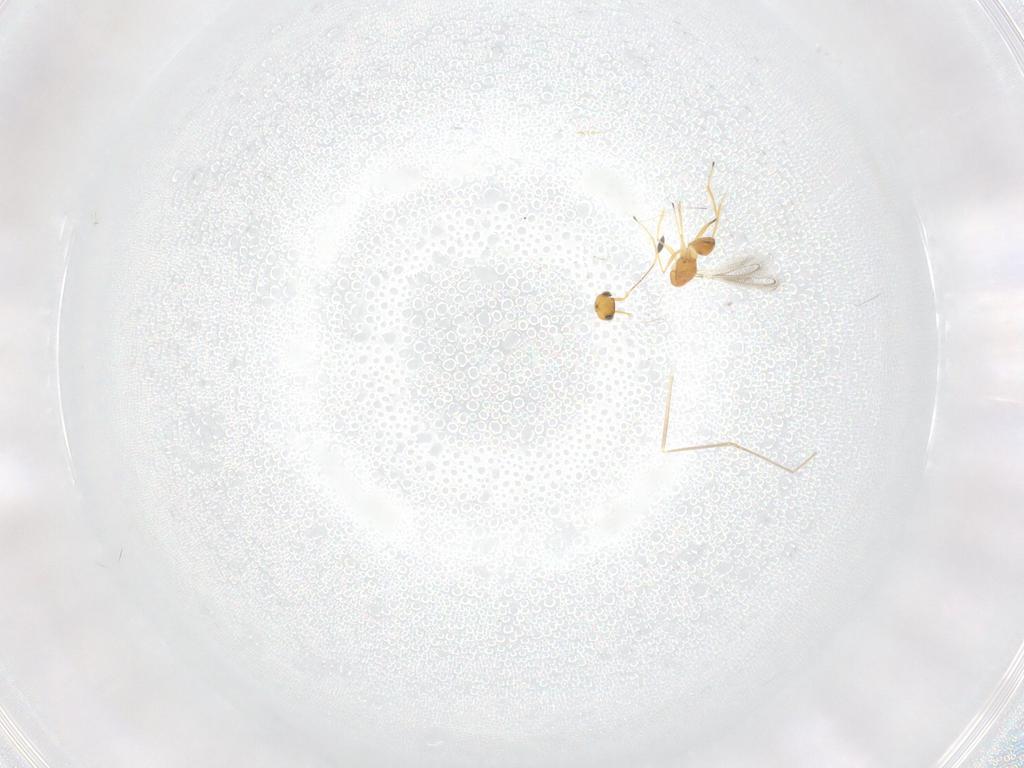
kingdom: Animalia
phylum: Arthropoda
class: Insecta
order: Hymenoptera
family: Mymaridae
